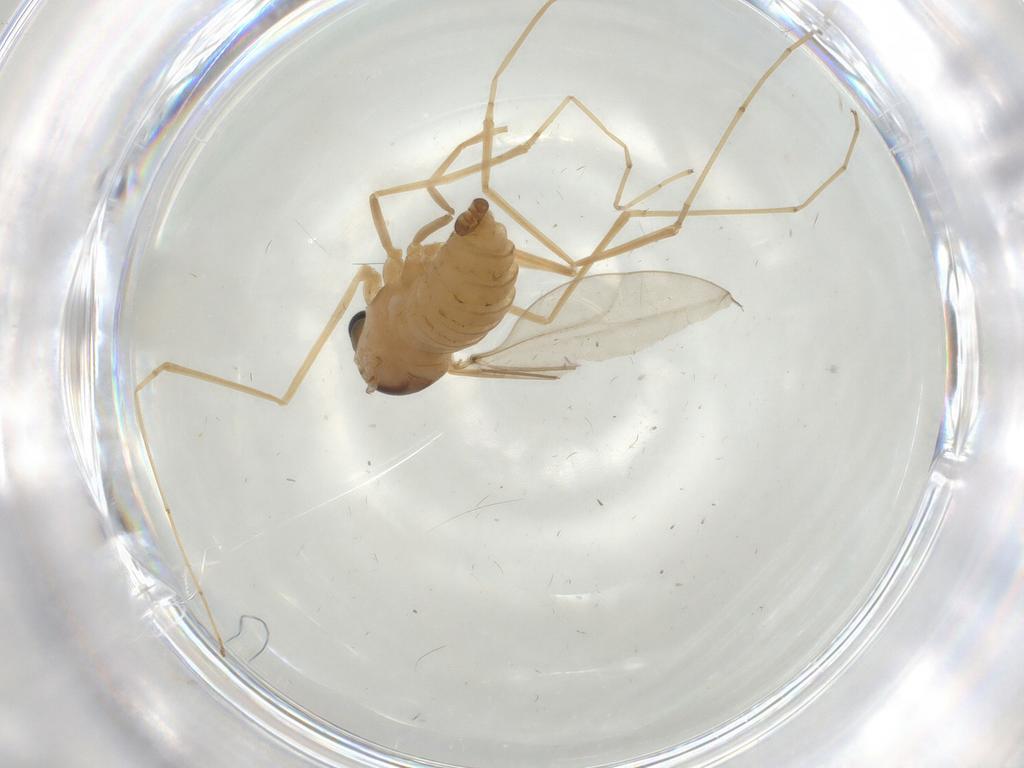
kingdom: Animalia
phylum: Arthropoda
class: Insecta
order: Diptera
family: Cecidomyiidae
